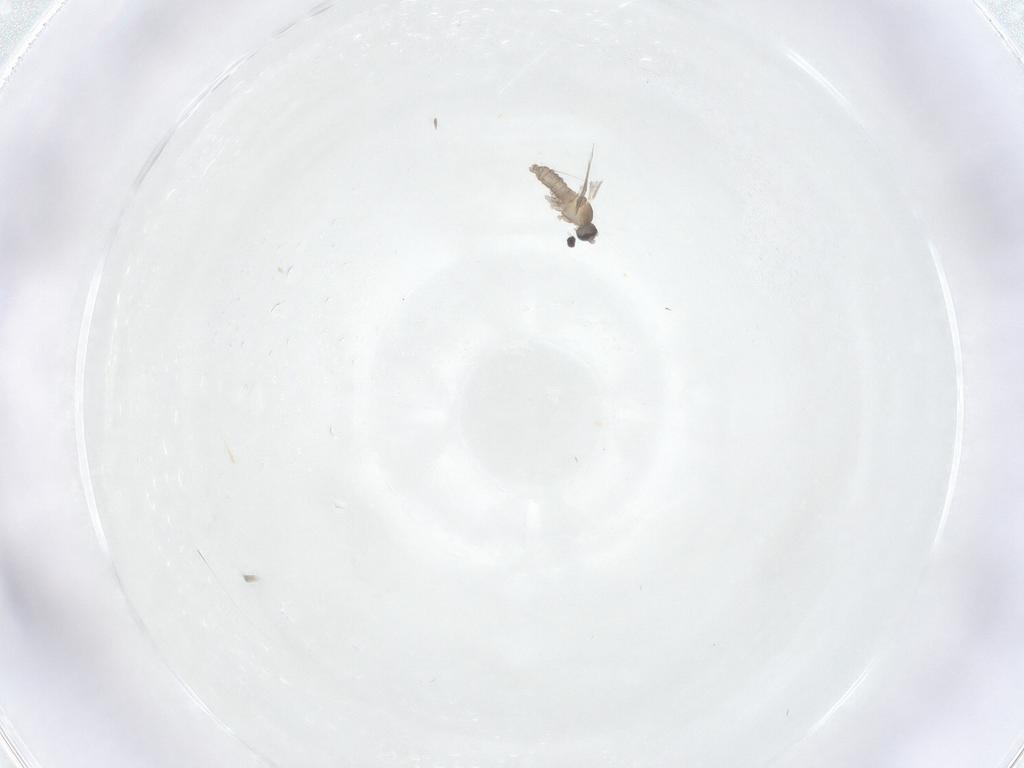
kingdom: Animalia
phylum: Arthropoda
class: Insecta
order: Diptera
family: Cecidomyiidae
